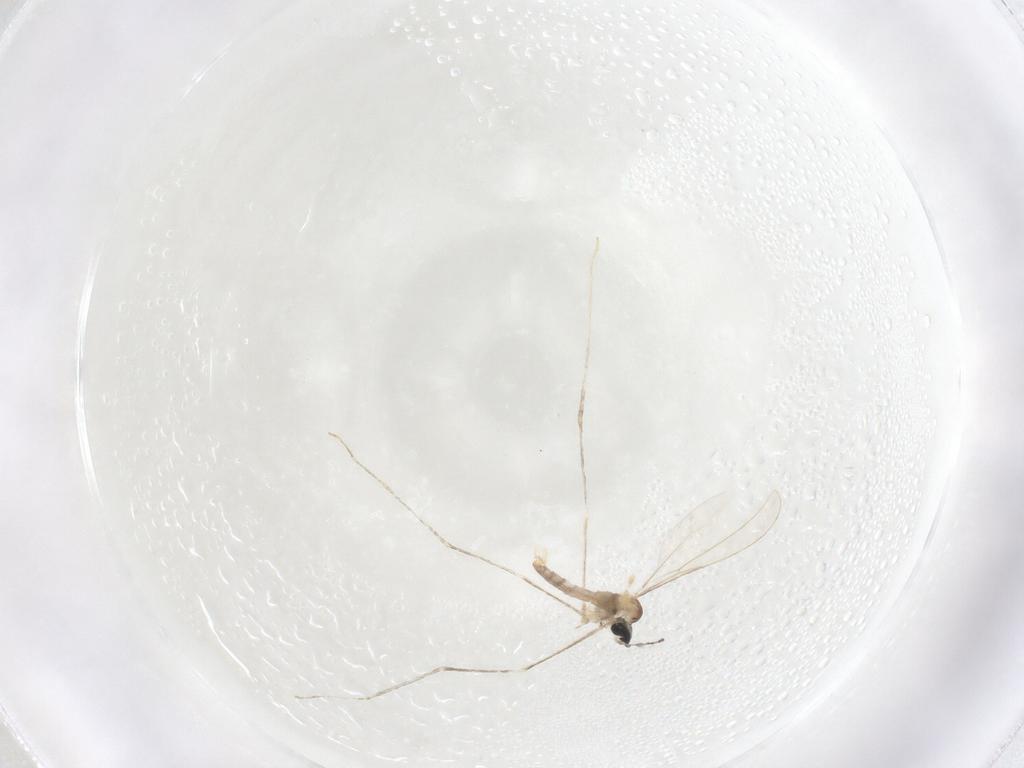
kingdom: Animalia
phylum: Arthropoda
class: Insecta
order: Diptera
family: Cecidomyiidae
